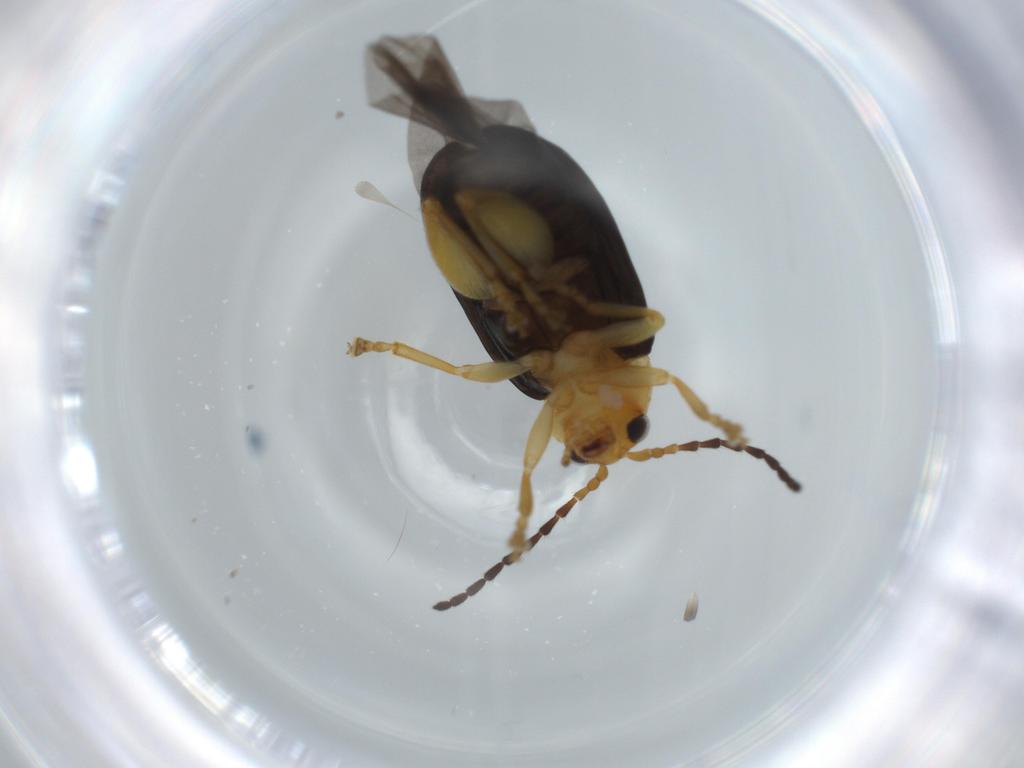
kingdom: Animalia
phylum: Arthropoda
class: Insecta
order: Coleoptera
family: Chrysomelidae
